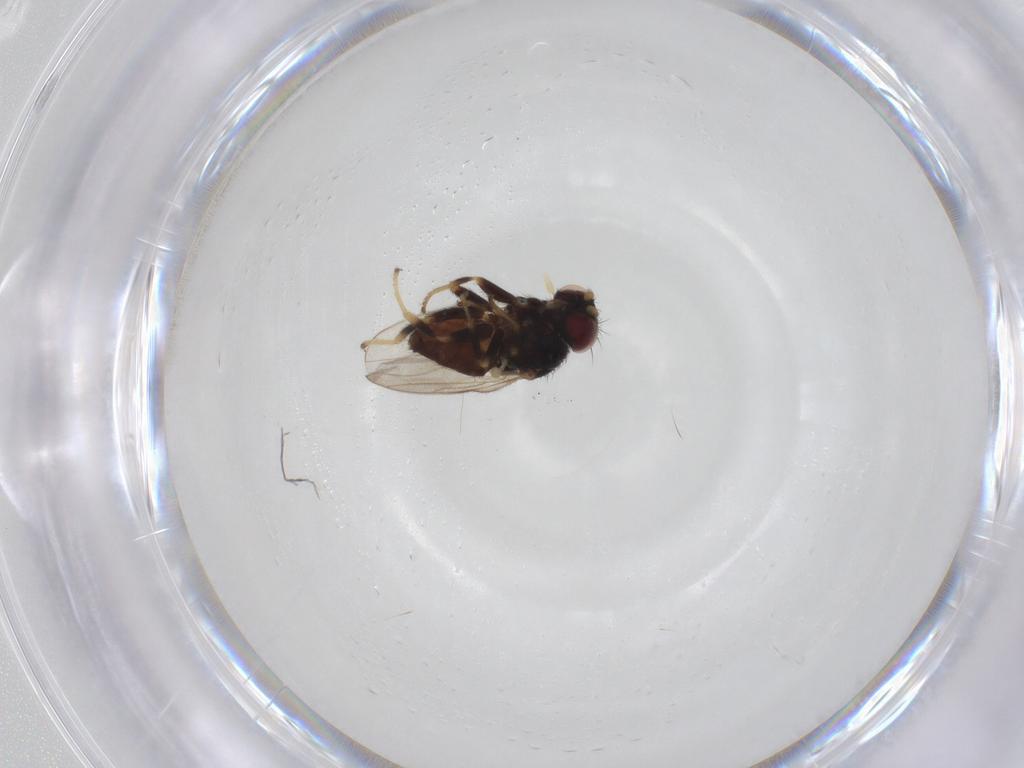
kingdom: Animalia
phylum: Arthropoda
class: Insecta
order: Diptera
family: Chloropidae
